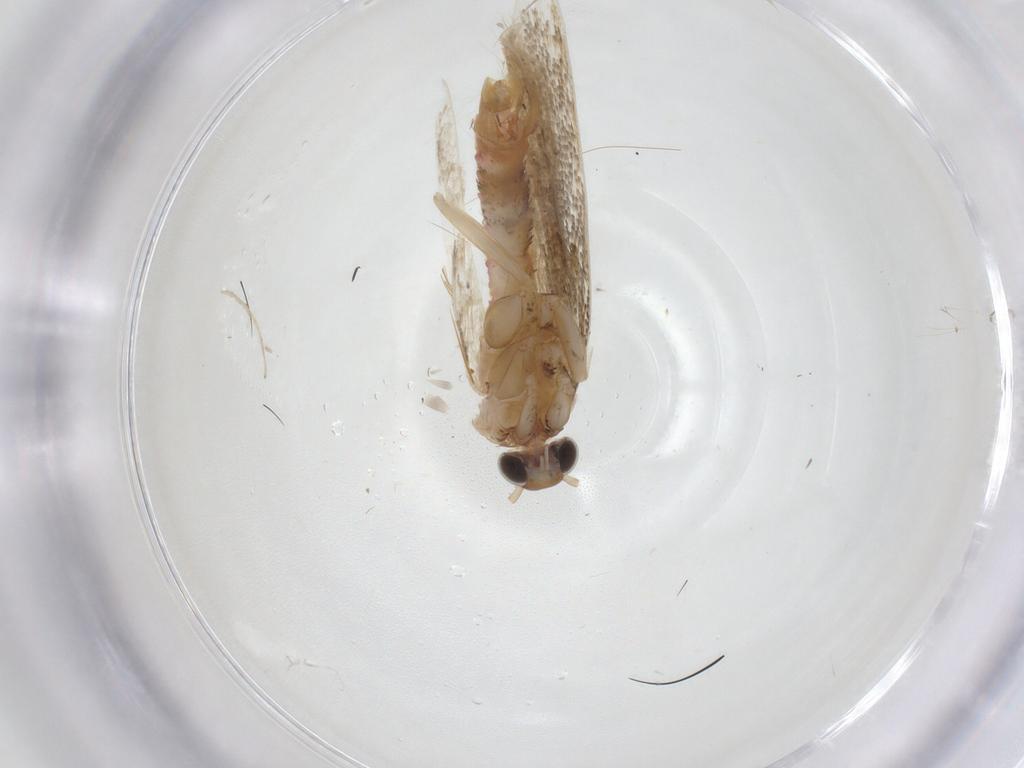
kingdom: Animalia
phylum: Arthropoda
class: Insecta
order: Lepidoptera
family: Crambidae
